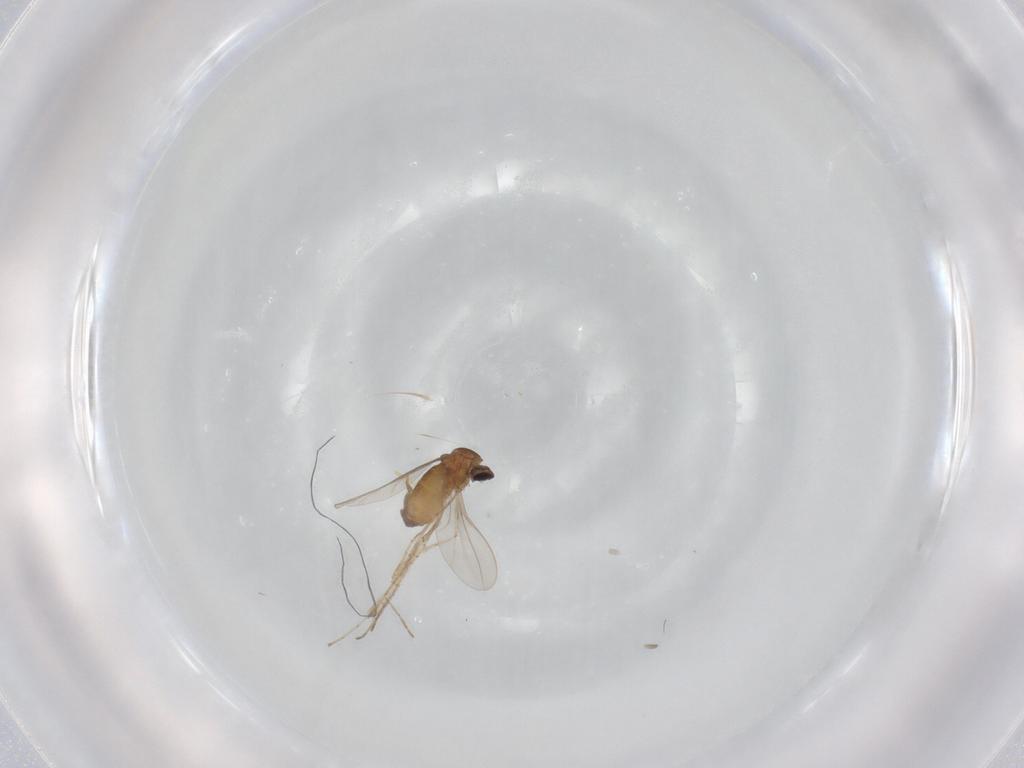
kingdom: Animalia
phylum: Arthropoda
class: Insecta
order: Diptera
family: Cecidomyiidae
